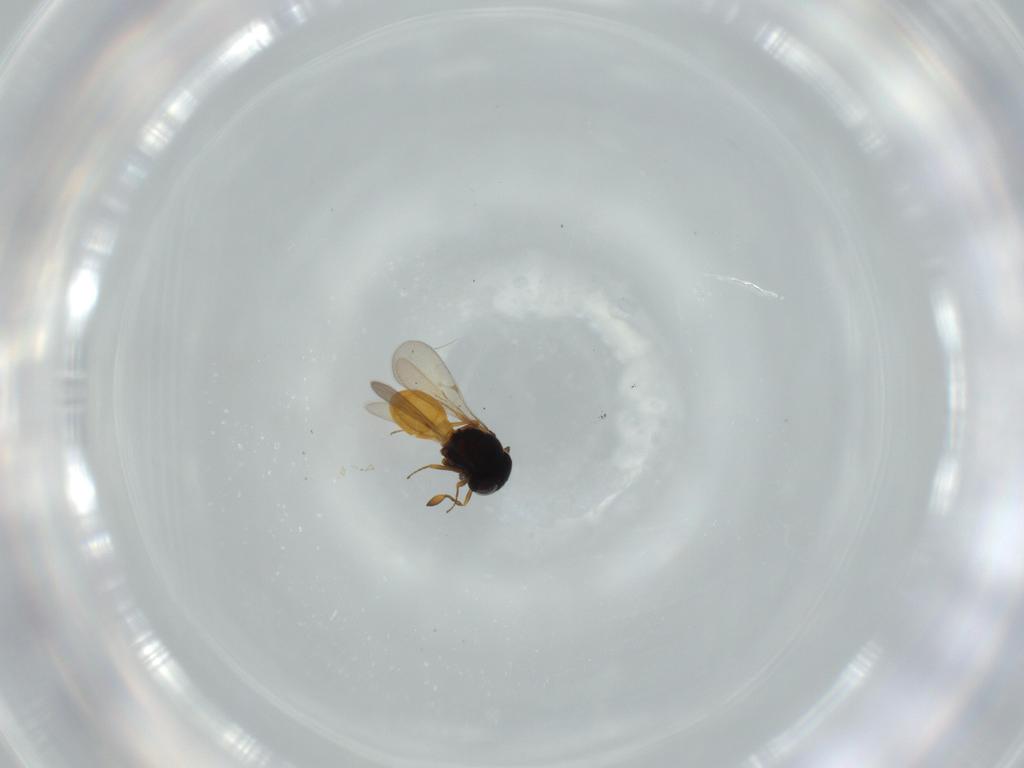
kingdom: Animalia
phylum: Arthropoda
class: Insecta
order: Hymenoptera
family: Scelionidae
